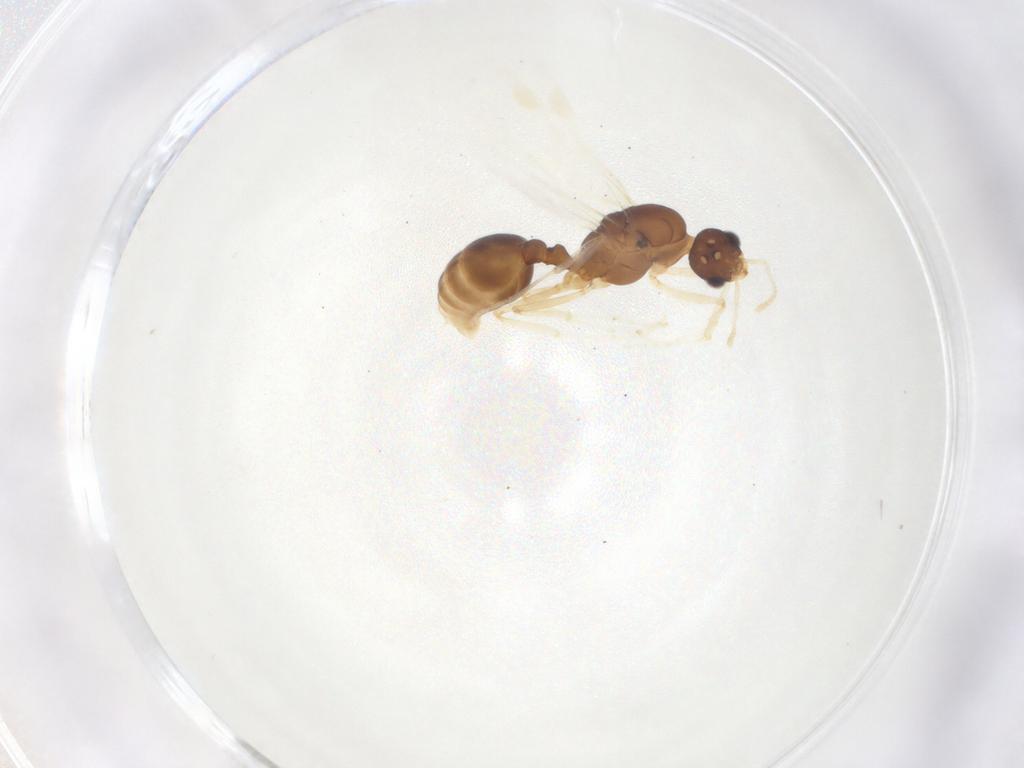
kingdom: Animalia
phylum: Arthropoda
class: Insecta
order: Hymenoptera
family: Formicidae
